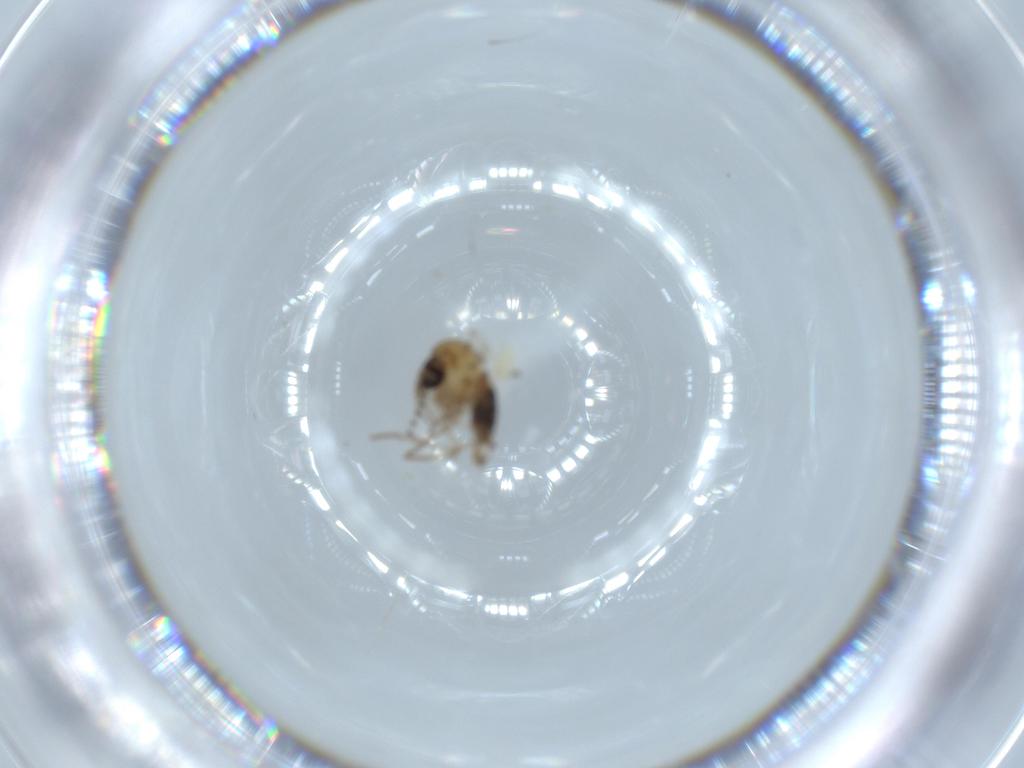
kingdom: Animalia
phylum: Arthropoda
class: Insecta
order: Diptera
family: Psychodidae
